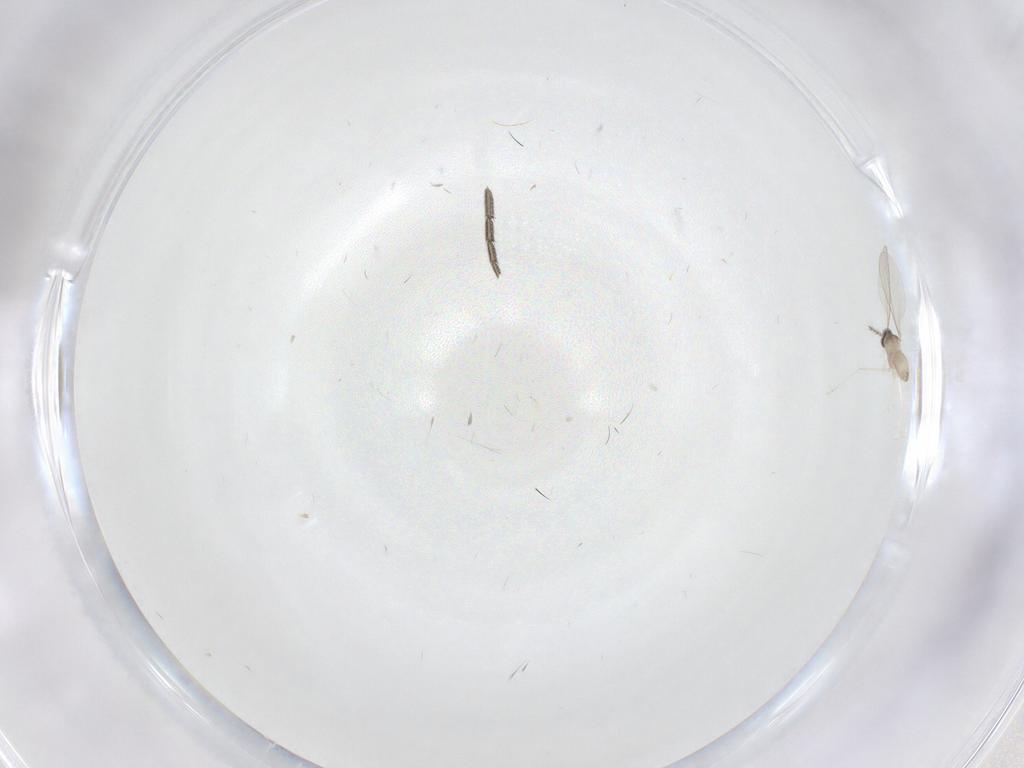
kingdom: Animalia
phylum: Arthropoda
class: Insecta
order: Diptera
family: Limoniidae
